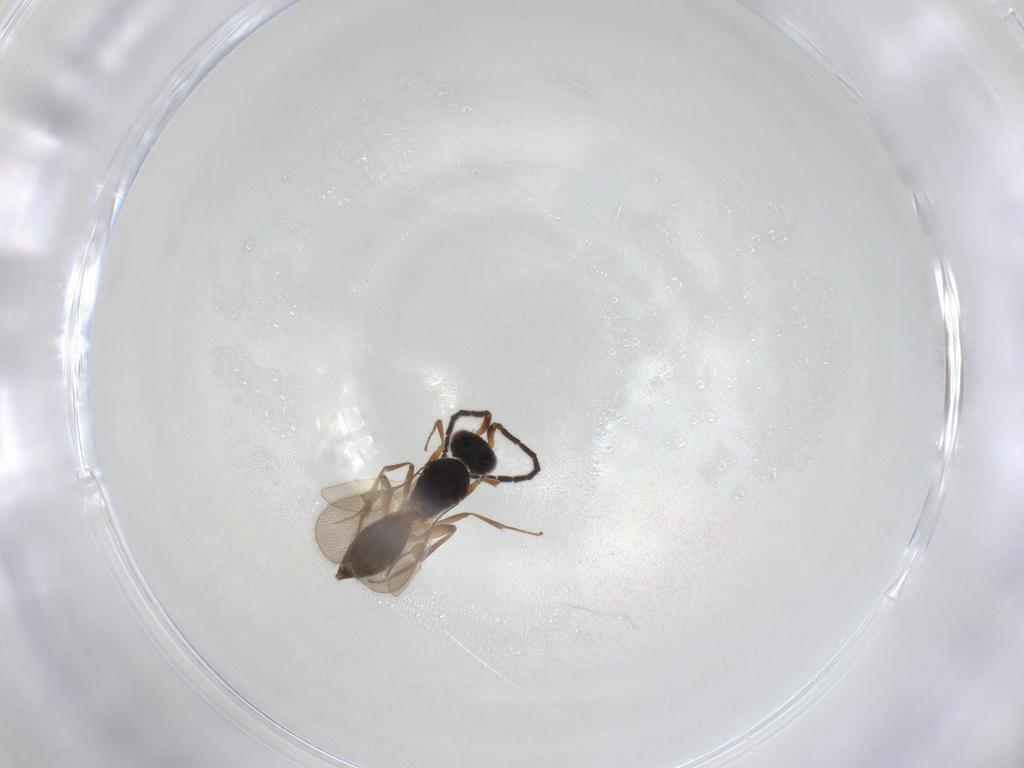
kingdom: Animalia
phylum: Arthropoda
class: Insecta
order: Hymenoptera
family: Megaspilidae
